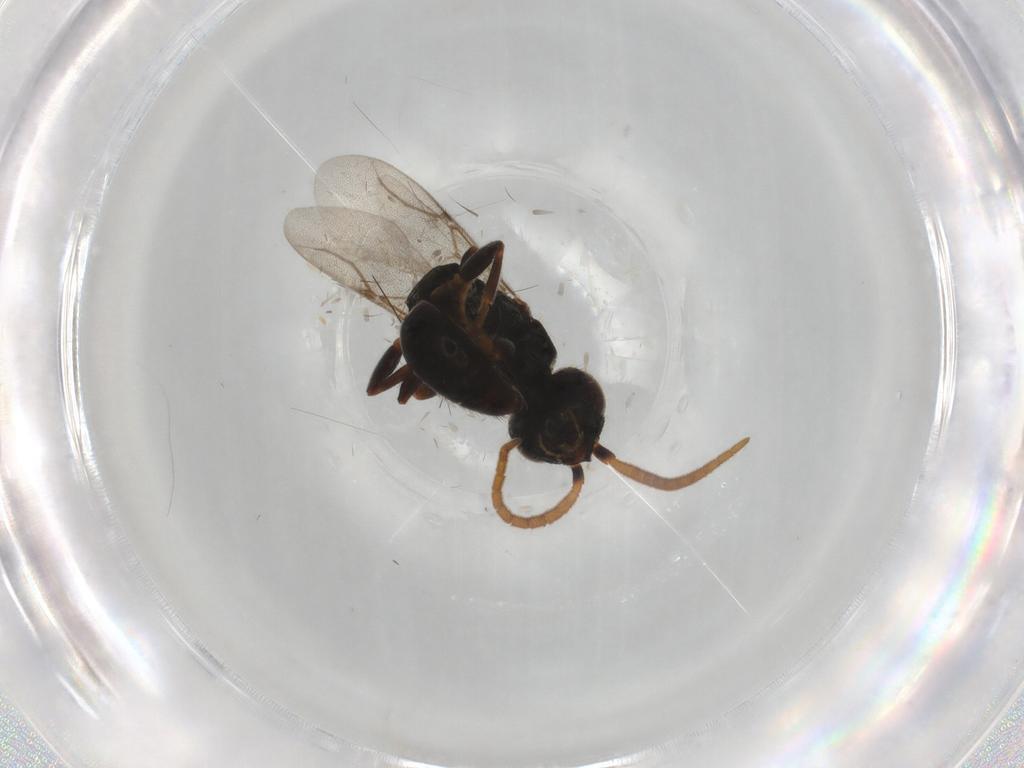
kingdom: Animalia
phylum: Arthropoda
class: Insecta
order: Hymenoptera
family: Bethylidae
